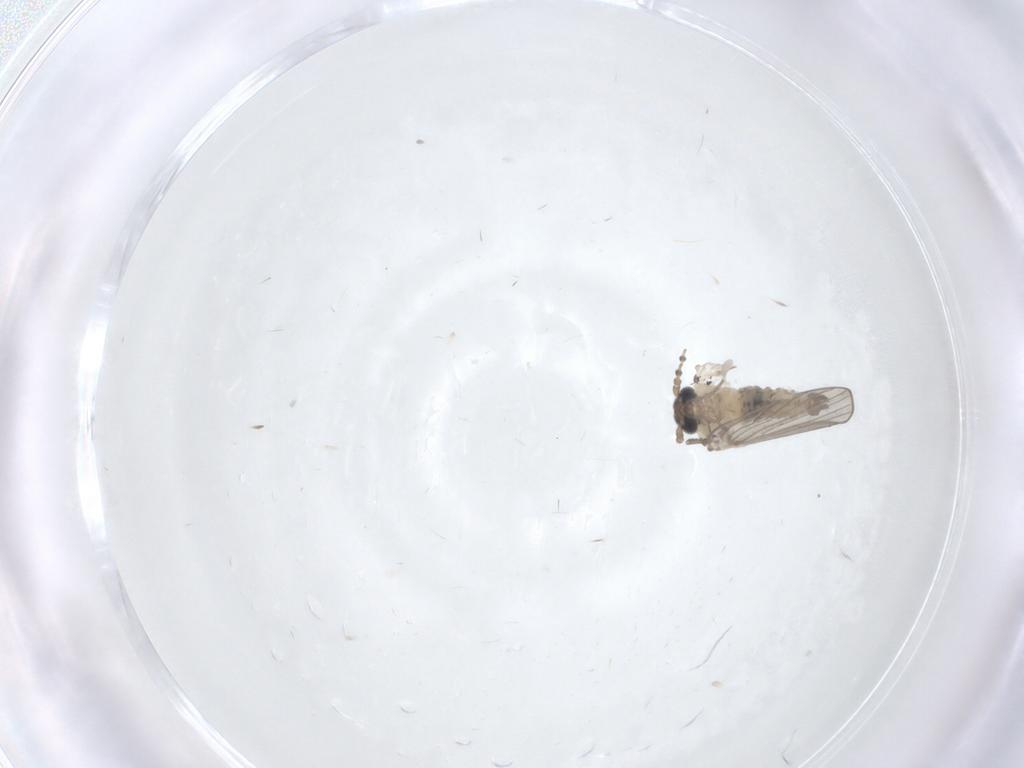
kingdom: Animalia
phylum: Arthropoda
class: Insecta
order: Diptera
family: Psychodidae
